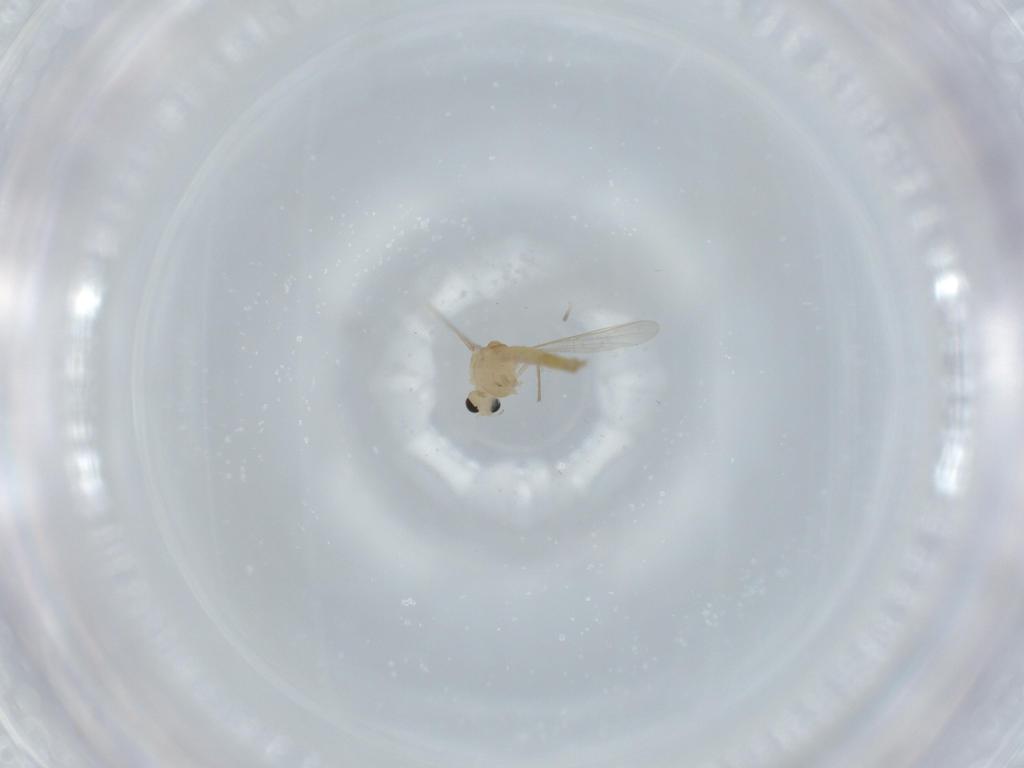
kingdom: Animalia
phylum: Arthropoda
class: Insecta
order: Diptera
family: Chironomidae
